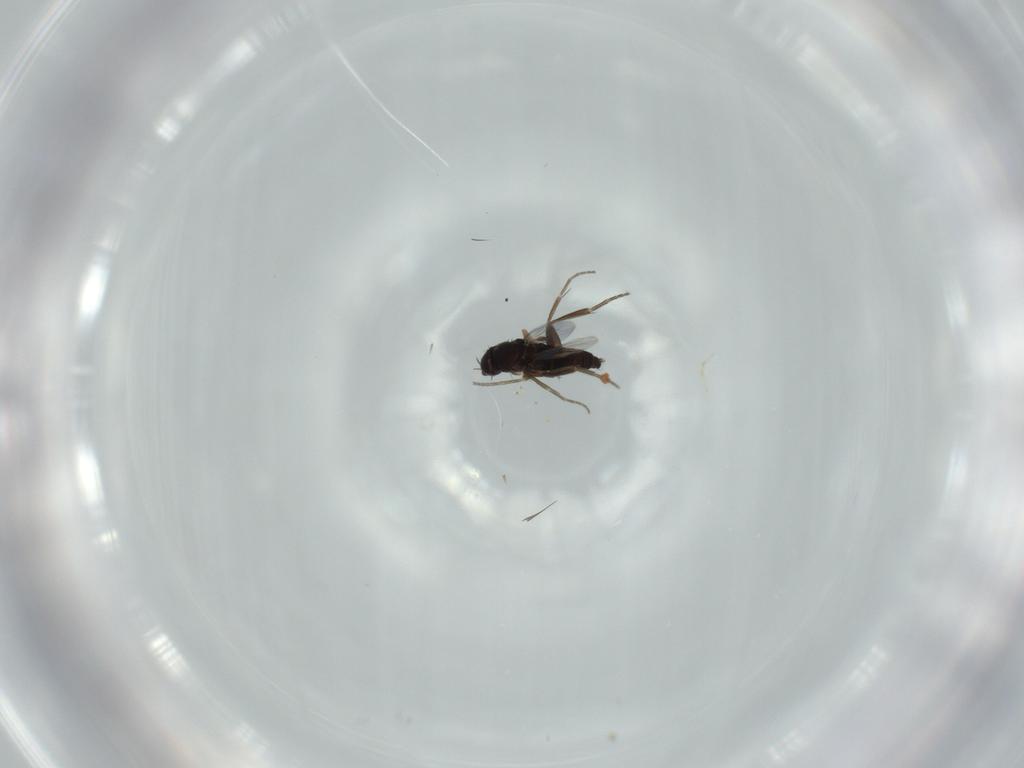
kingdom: Animalia
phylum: Arthropoda
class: Insecta
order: Diptera
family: Phoridae
